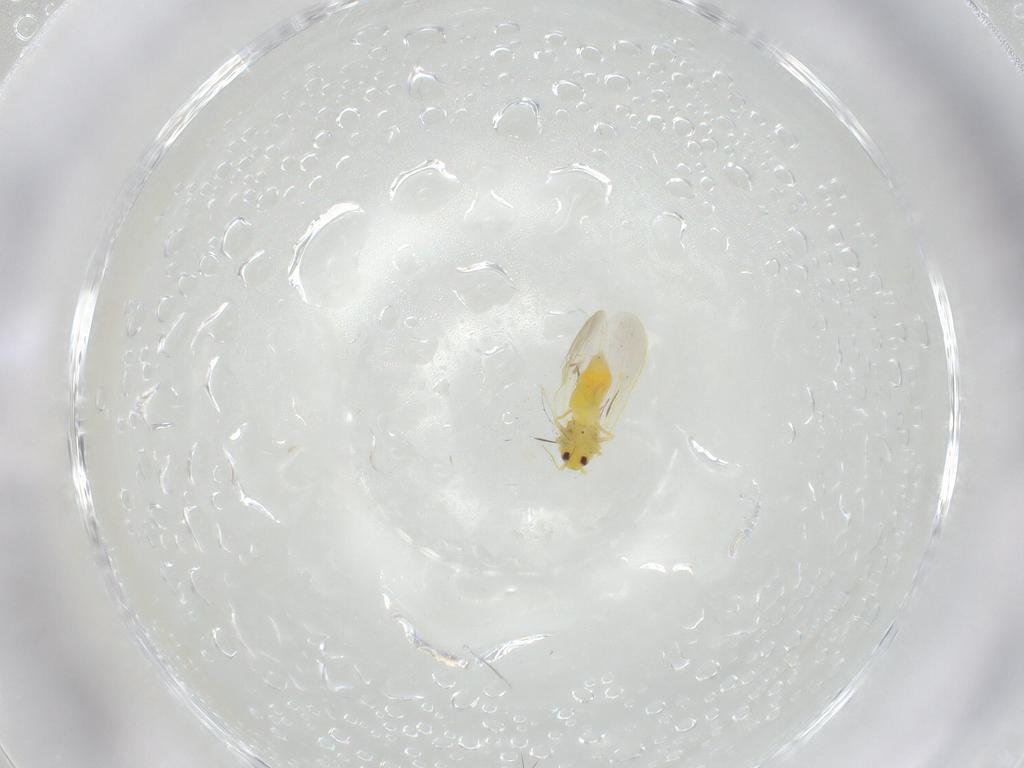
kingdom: Animalia
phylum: Arthropoda
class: Insecta
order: Hemiptera
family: Aleyrodidae
